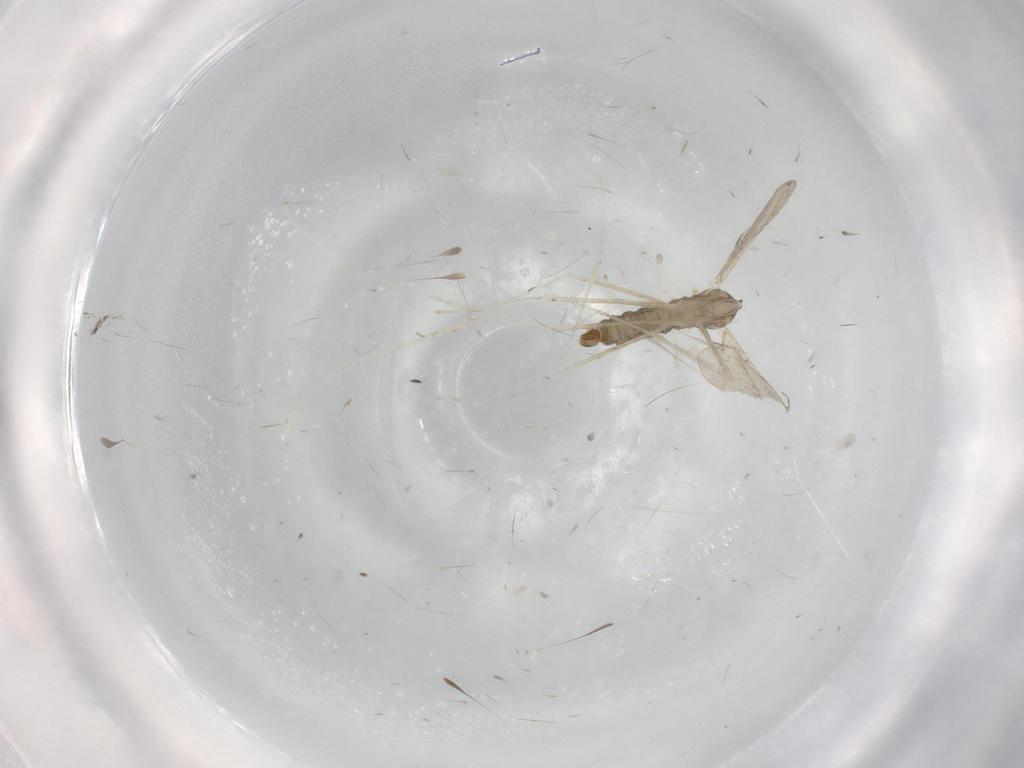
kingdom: Animalia
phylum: Arthropoda
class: Insecta
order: Diptera
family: Cecidomyiidae
